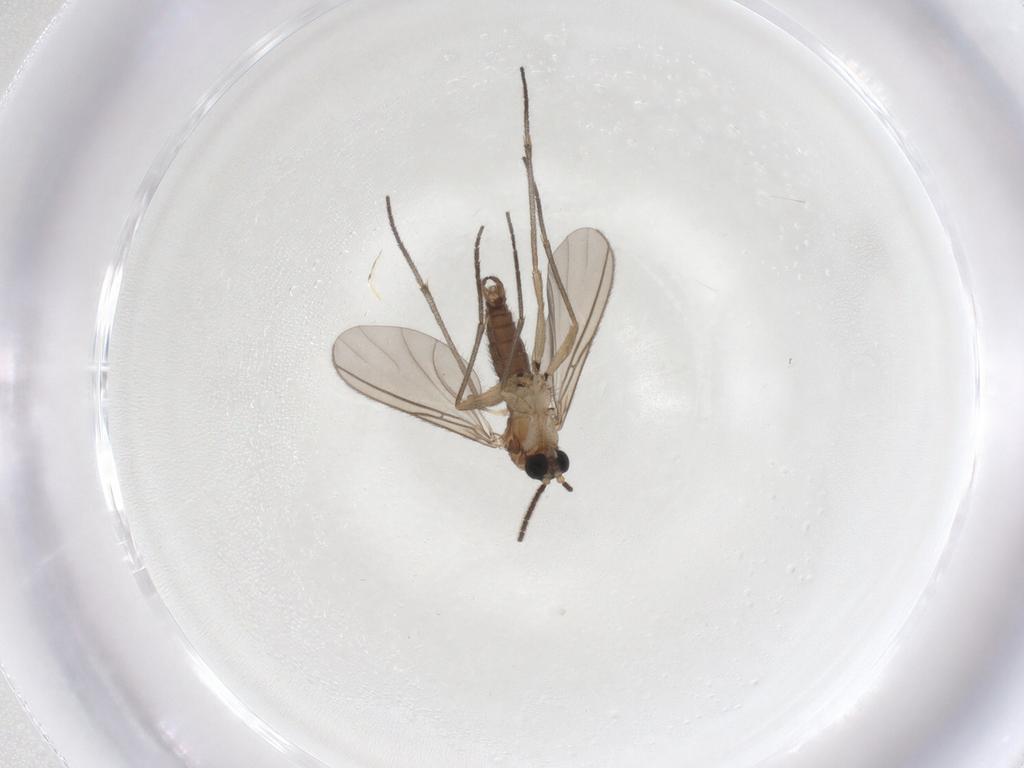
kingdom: Animalia
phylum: Arthropoda
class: Insecta
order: Diptera
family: Sciaridae
